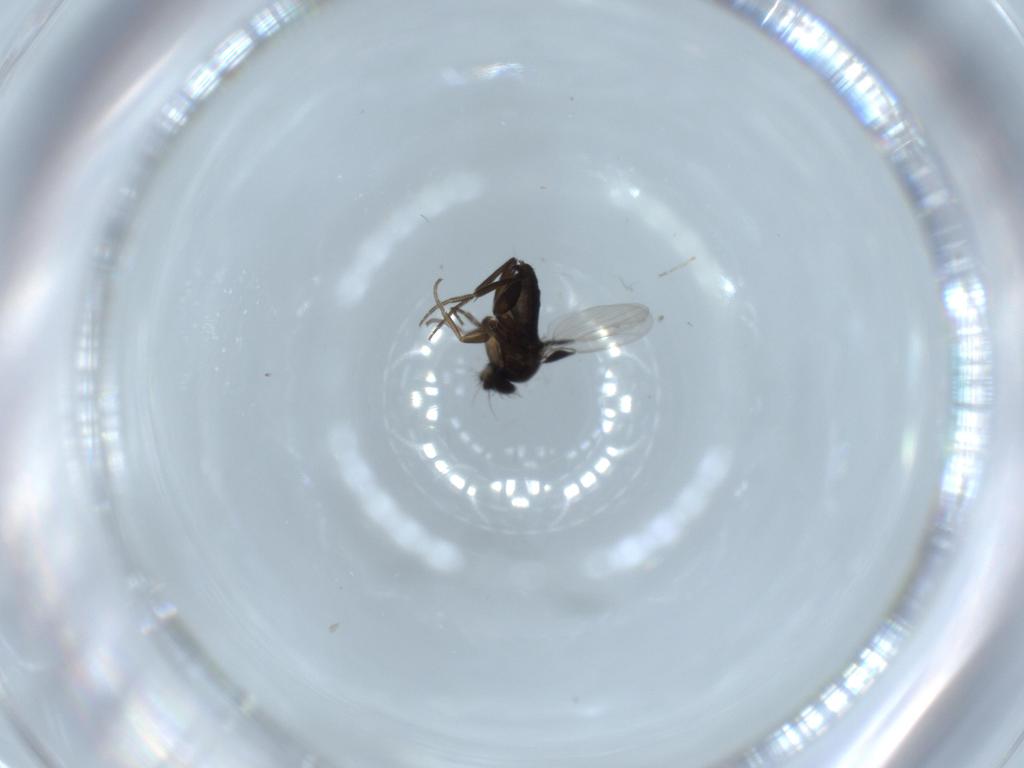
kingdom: Animalia
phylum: Arthropoda
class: Insecta
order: Diptera
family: Phoridae
